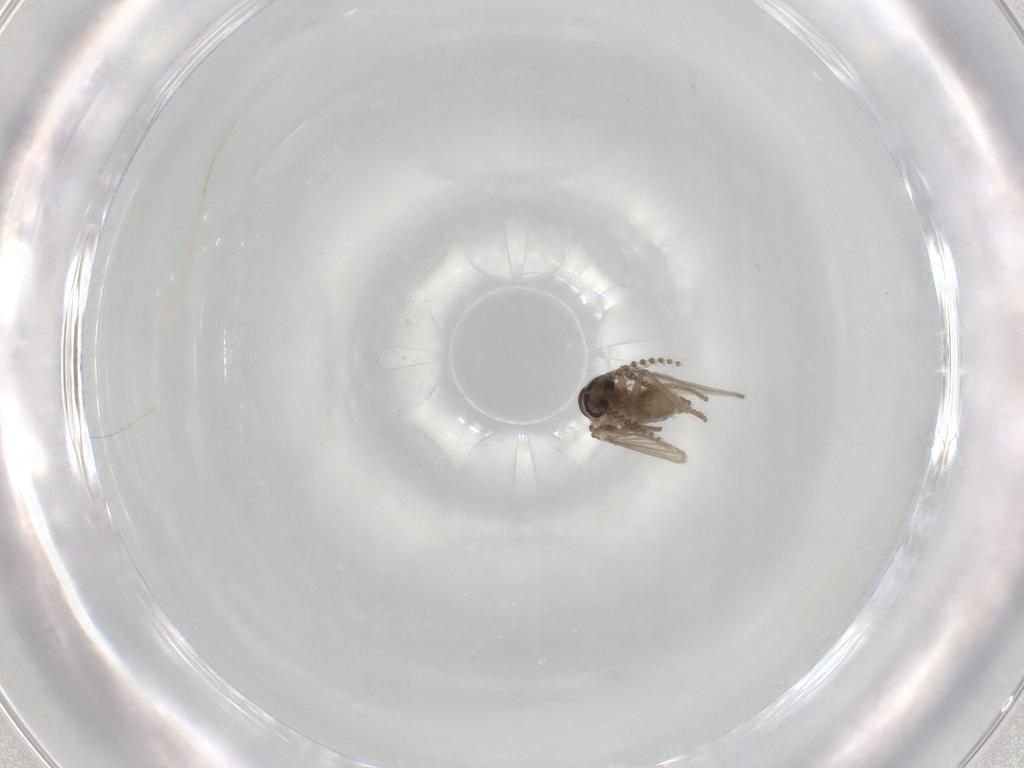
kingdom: Animalia
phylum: Arthropoda
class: Insecta
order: Diptera
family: Psychodidae
